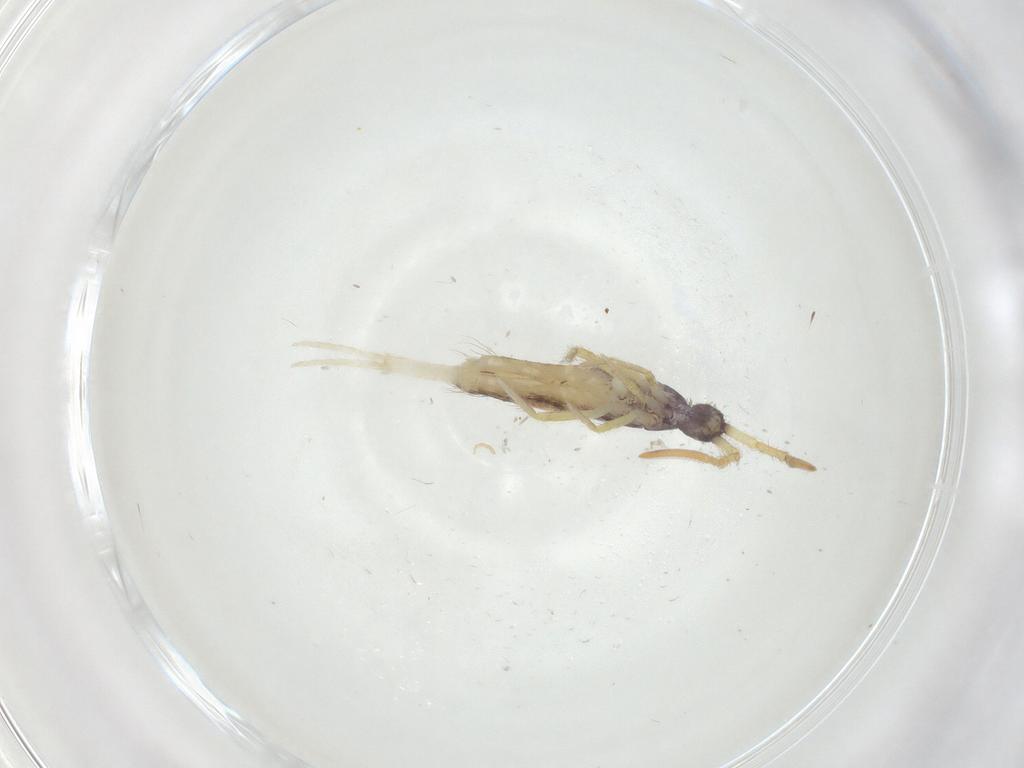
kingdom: Animalia
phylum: Arthropoda
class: Collembola
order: Entomobryomorpha
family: Entomobryidae
